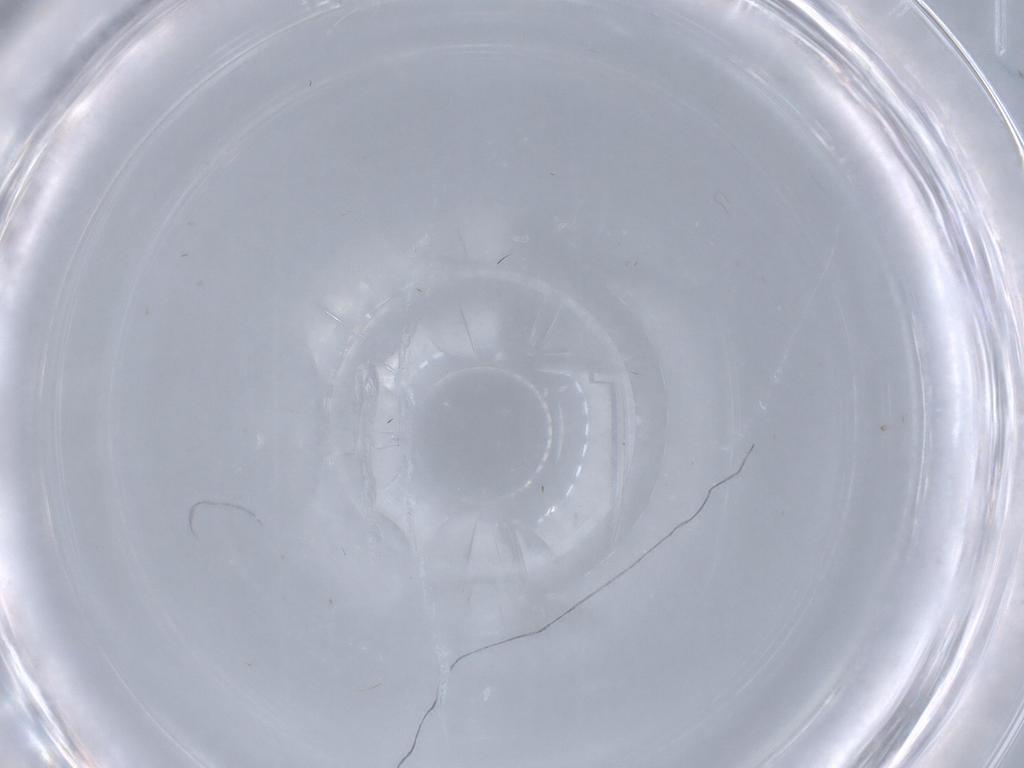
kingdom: Animalia
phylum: Arthropoda
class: Insecta
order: Hymenoptera
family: Scelionidae
